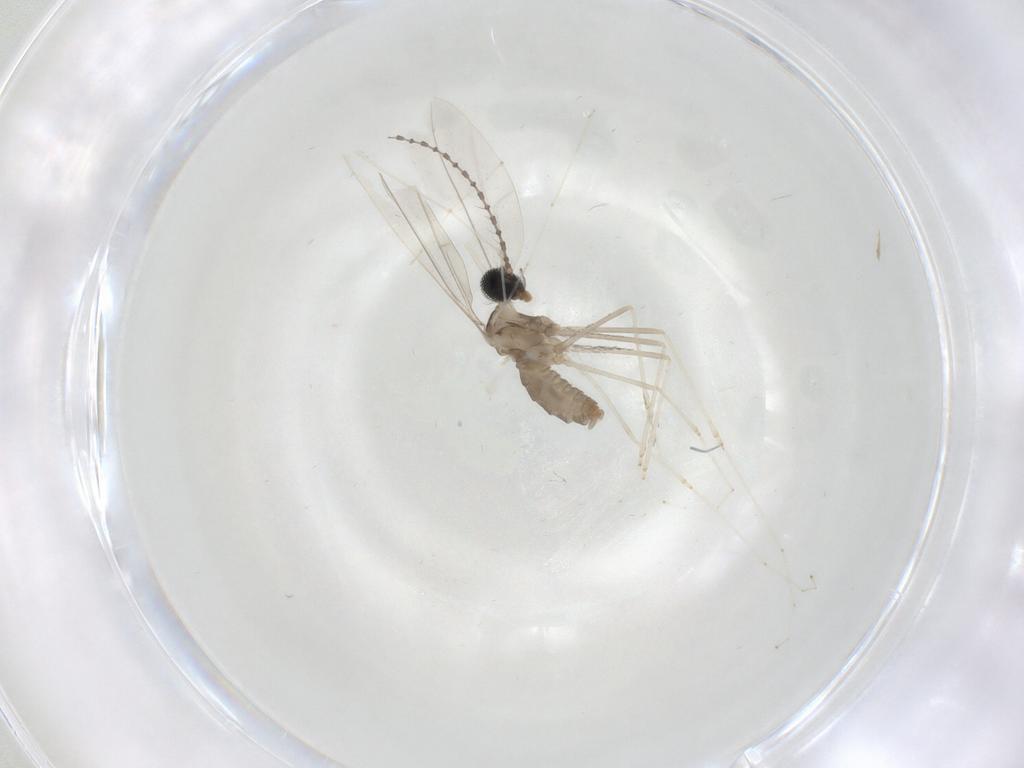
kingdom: Animalia
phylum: Arthropoda
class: Insecta
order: Diptera
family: Cecidomyiidae
